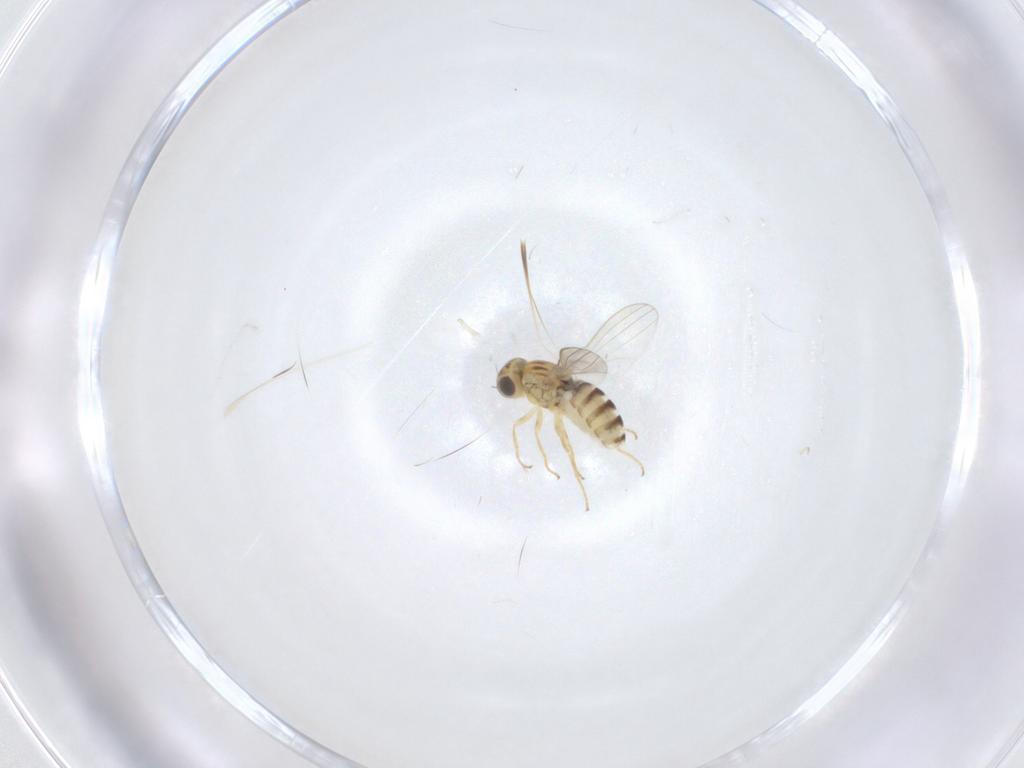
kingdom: Animalia
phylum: Arthropoda
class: Insecta
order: Diptera
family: Chyromyidae
